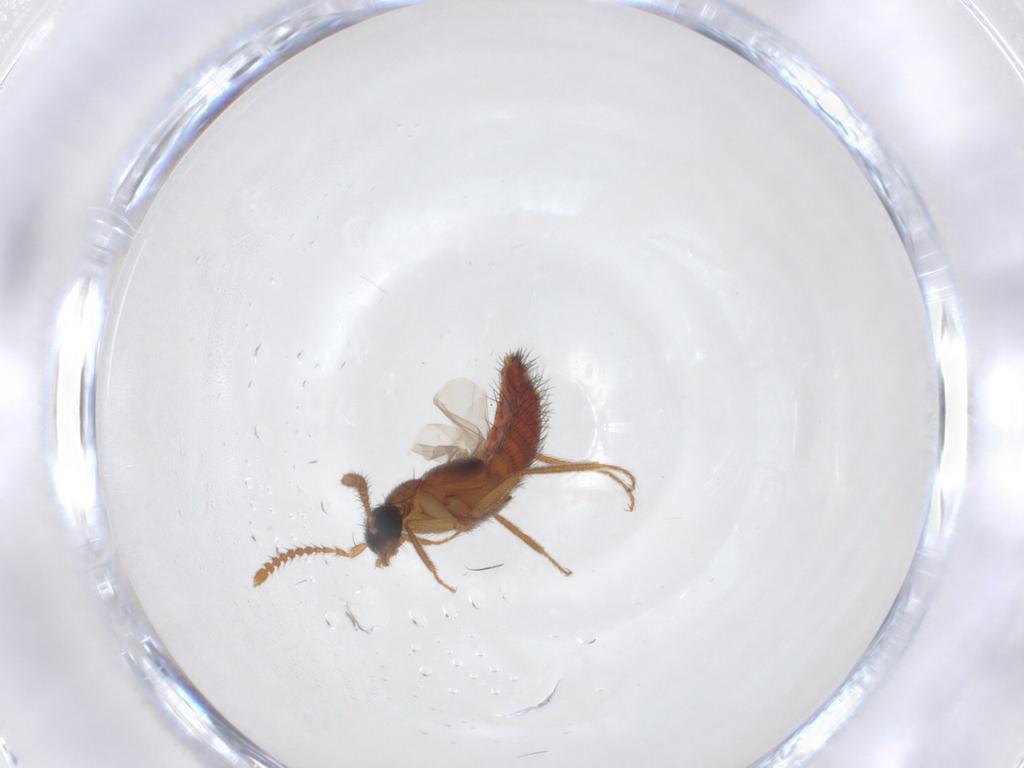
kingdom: Animalia
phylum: Arthropoda
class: Insecta
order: Coleoptera
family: Staphylinidae
